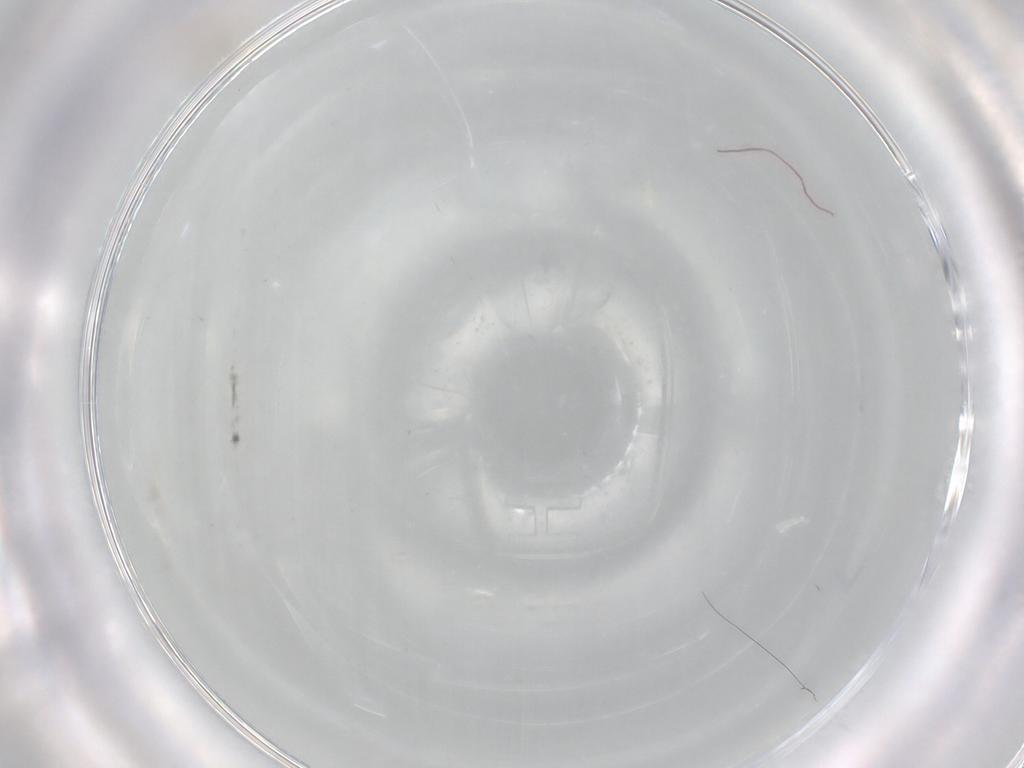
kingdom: Animalia
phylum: Arthropoda
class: Insecta
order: Diptera
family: Cecidomyiidae
